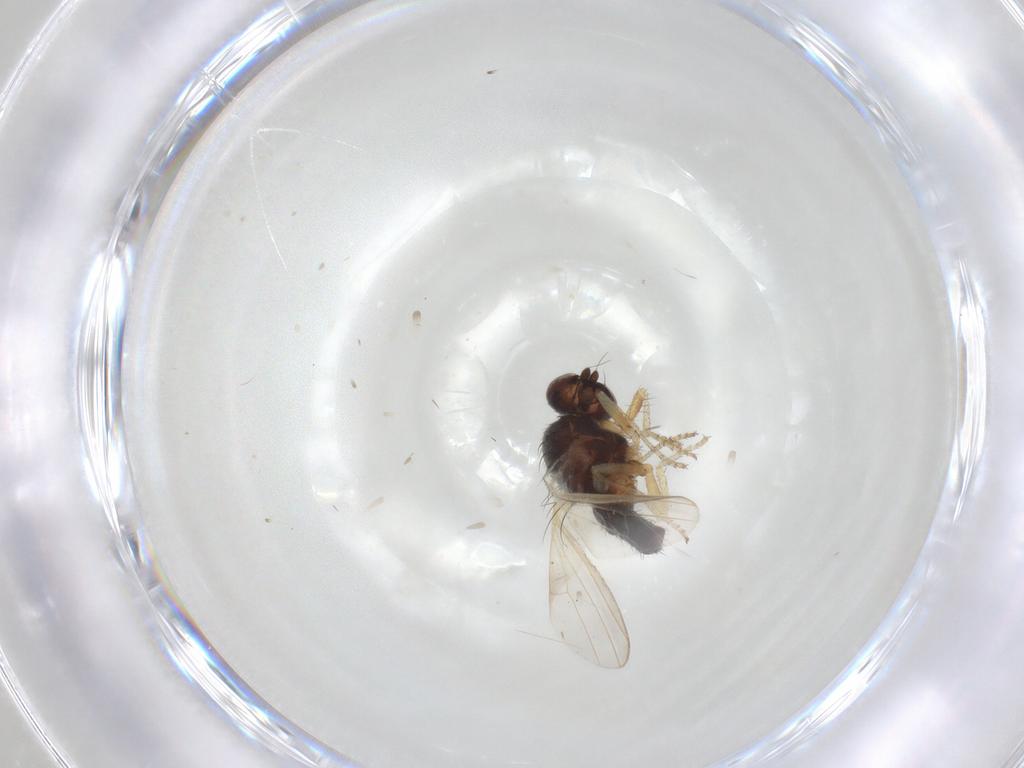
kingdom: Animalia
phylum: Arthropoda
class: Insecta
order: Diptera
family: Heleomyzidae
